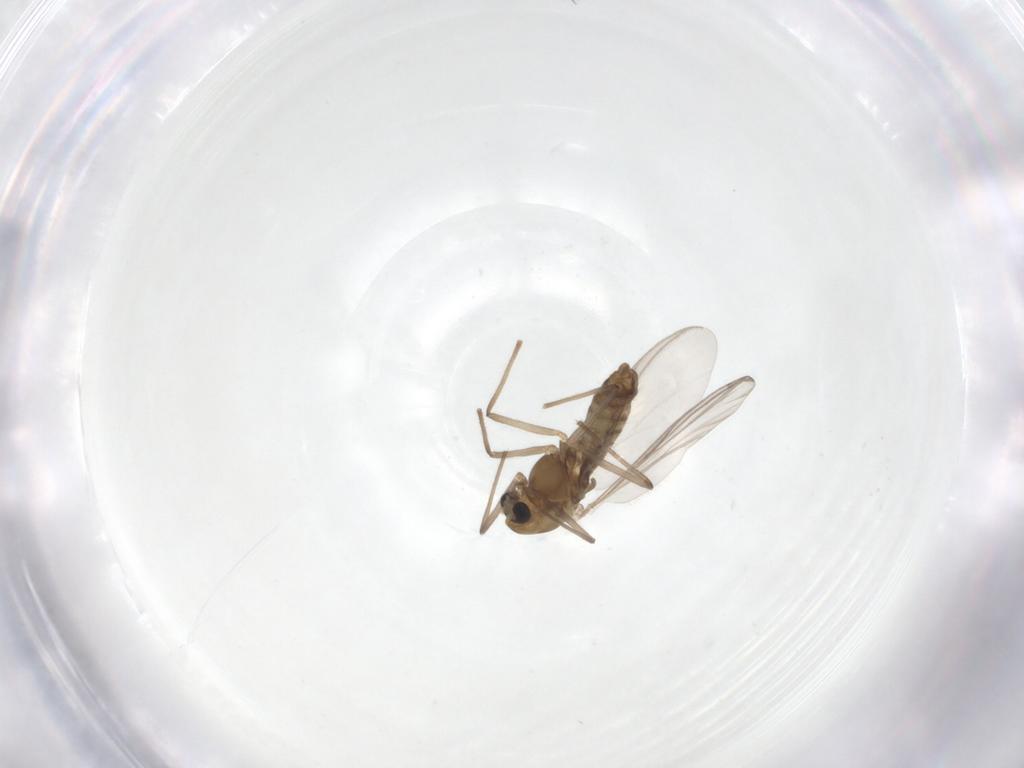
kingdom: Animalia
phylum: Arthropoda
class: Insecta
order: Diptera
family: Chironomidae
